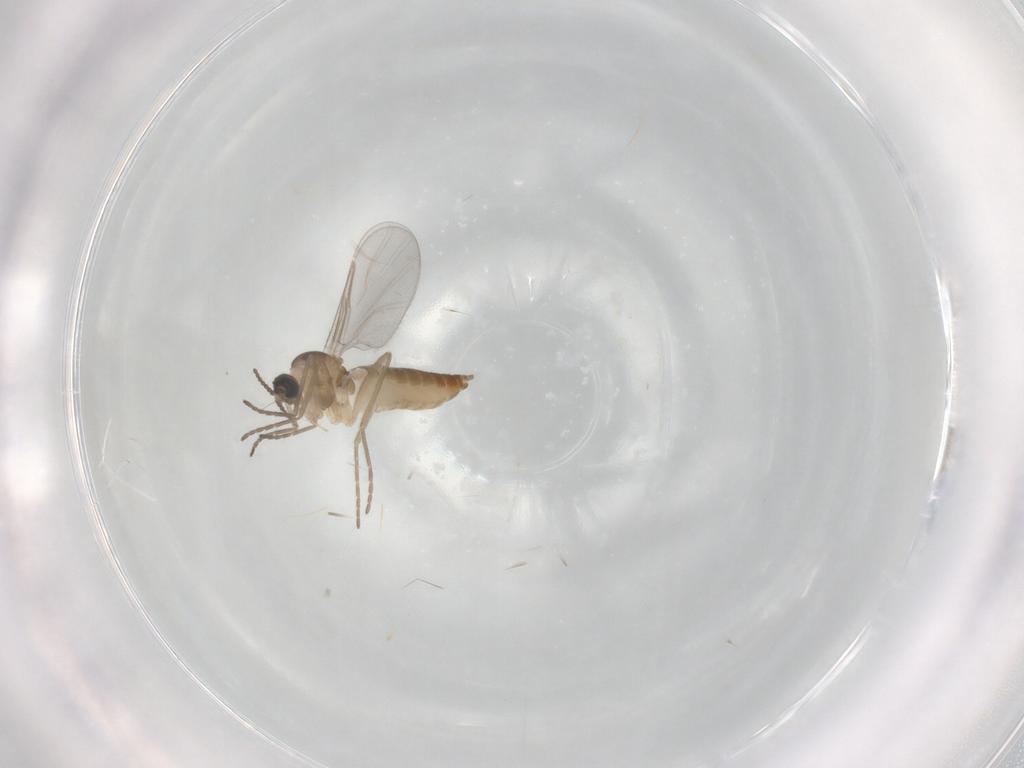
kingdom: Animalia
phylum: Arthropoda
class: Insecta
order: Diptera
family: Cecidomyiidae
